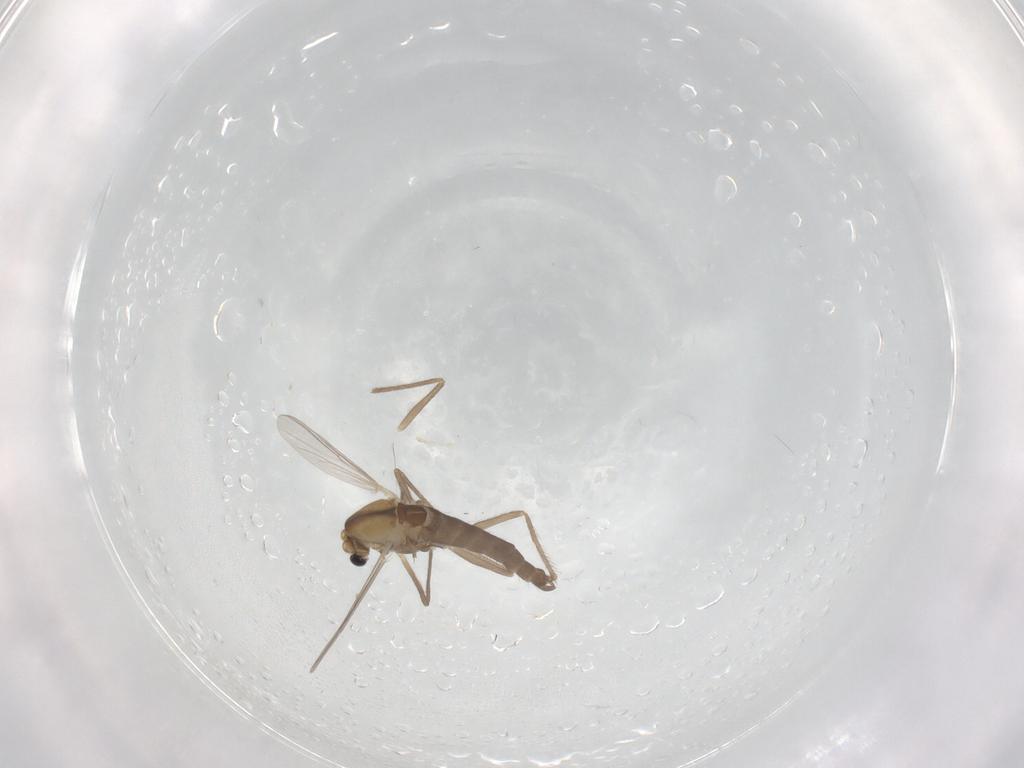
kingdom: Animalia
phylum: Arthropoda
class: Insecta
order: Diptera
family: Chironomidae
